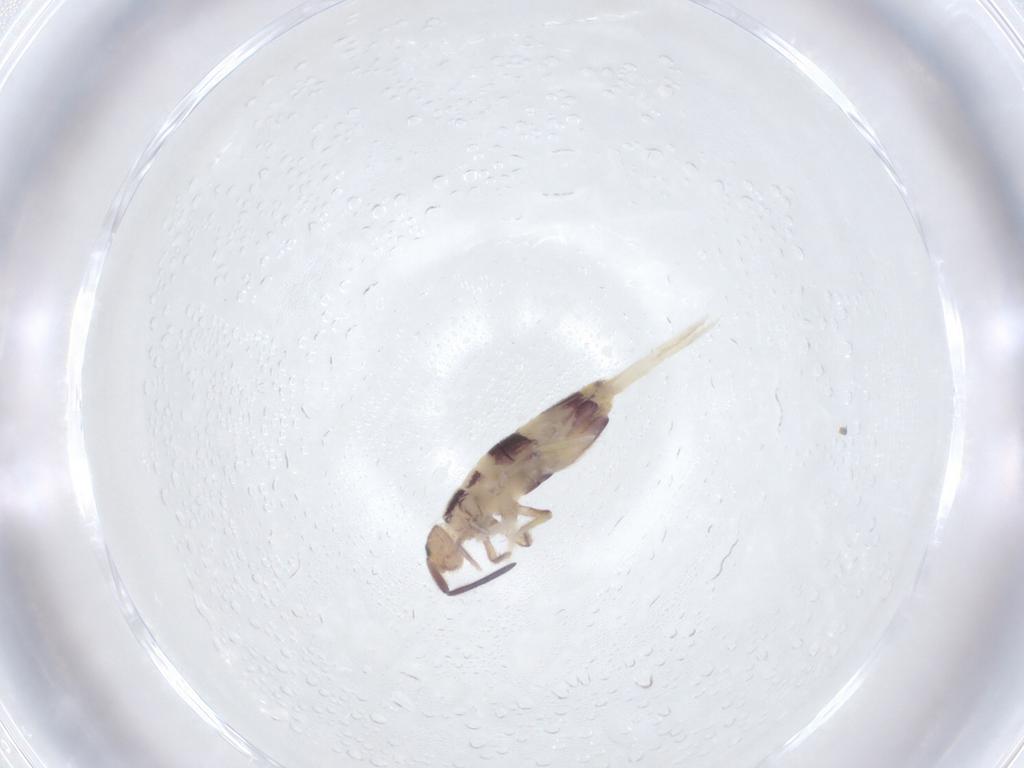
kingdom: Animalia
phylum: Arthropoda
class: Collembola
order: Entomobryomorpha
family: Entomobryidae
